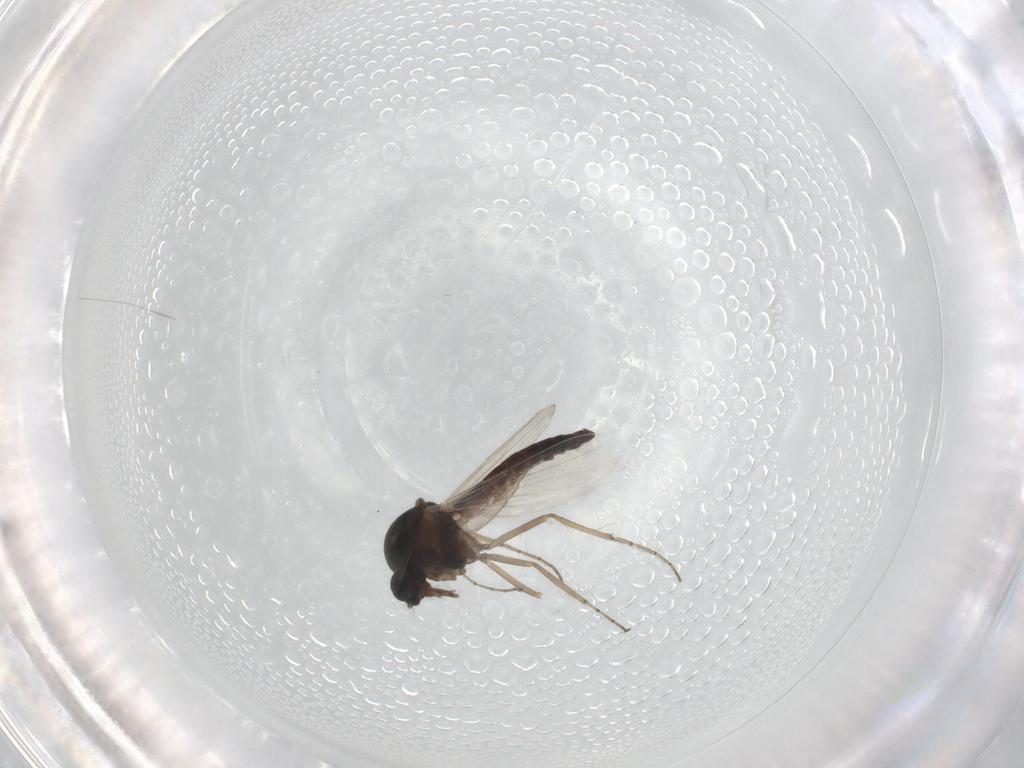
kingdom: Animalia
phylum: Arthropoda
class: Insecta
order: Diptera
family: Ceratopogonidae
